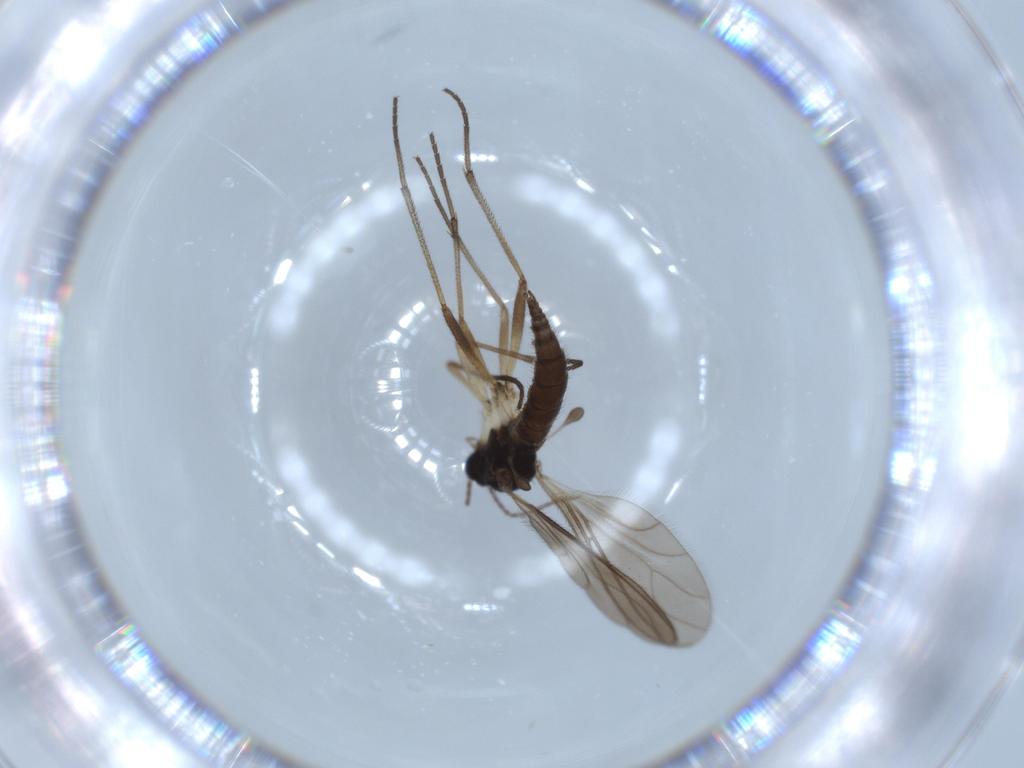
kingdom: Animalia
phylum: Arthropoda
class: Insecta
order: Diptera
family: Sciaridae
